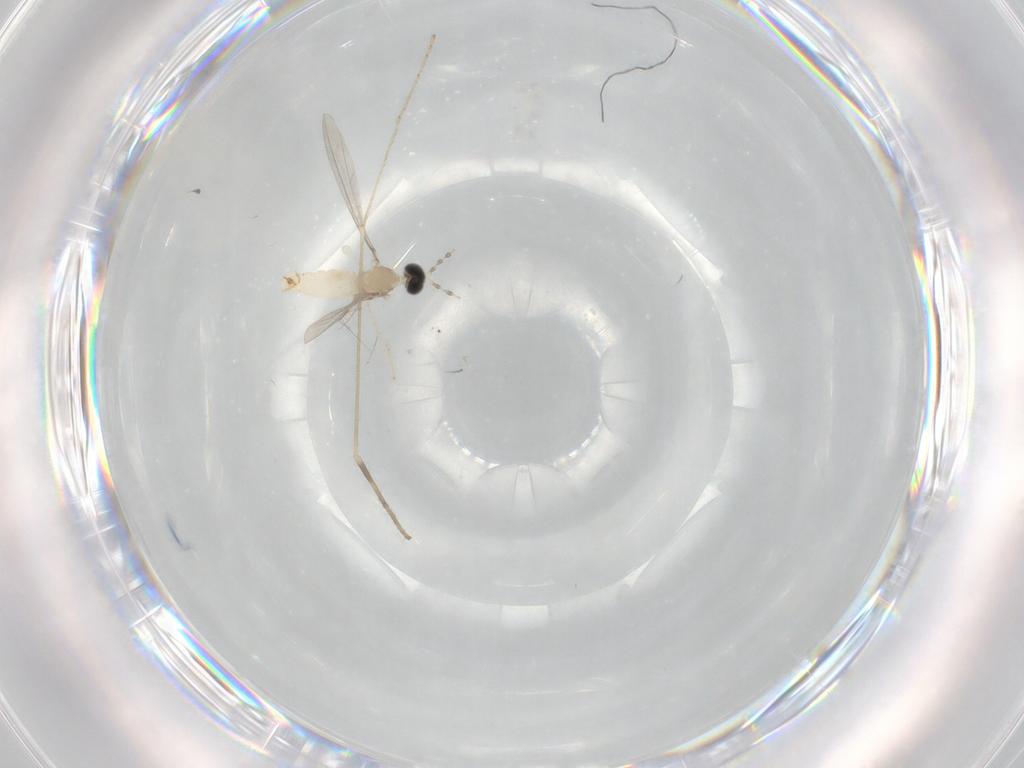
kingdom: Animalia
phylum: Arthropoda
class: Insecta
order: Diptera
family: Limoniidae
